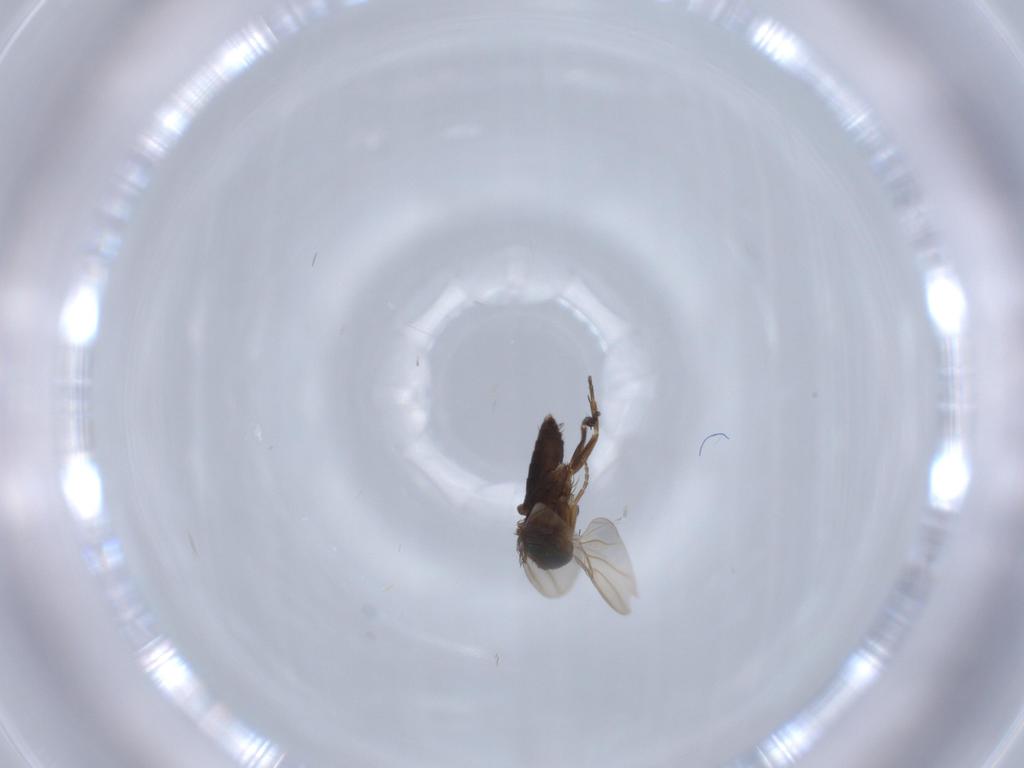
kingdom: Animalia
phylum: Arthropoda
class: Insecta
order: Diptera
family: Phoridae
